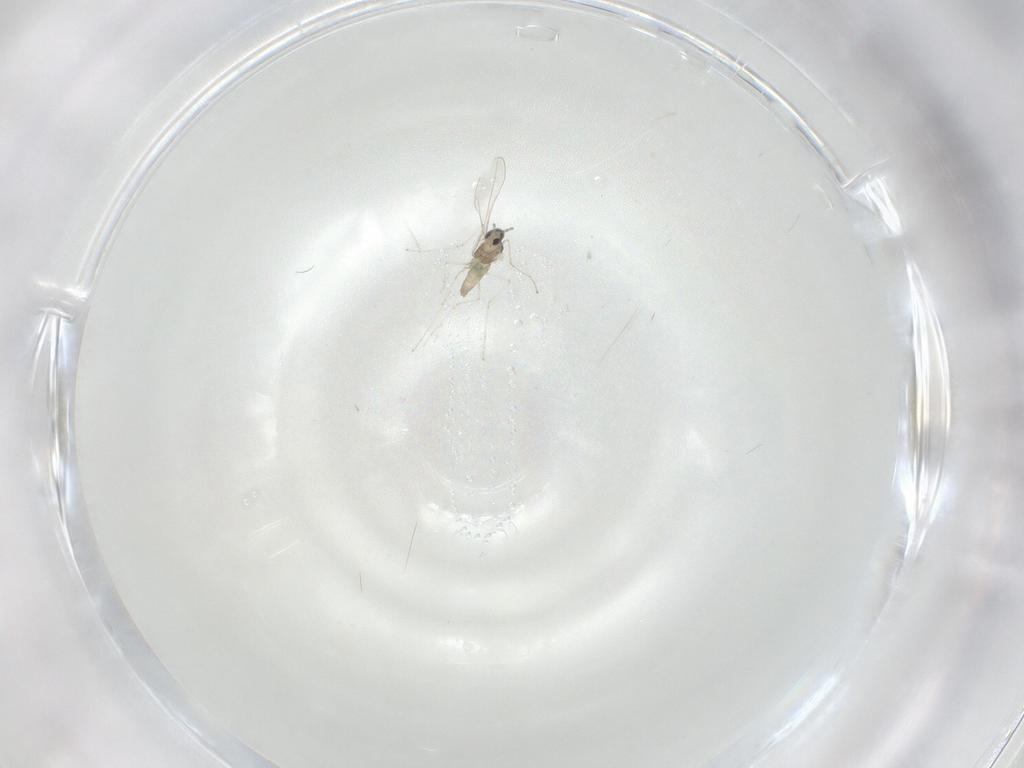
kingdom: Animalia
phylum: Arthropoda
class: Insecta
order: Diptera
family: Cecidomyiidae
